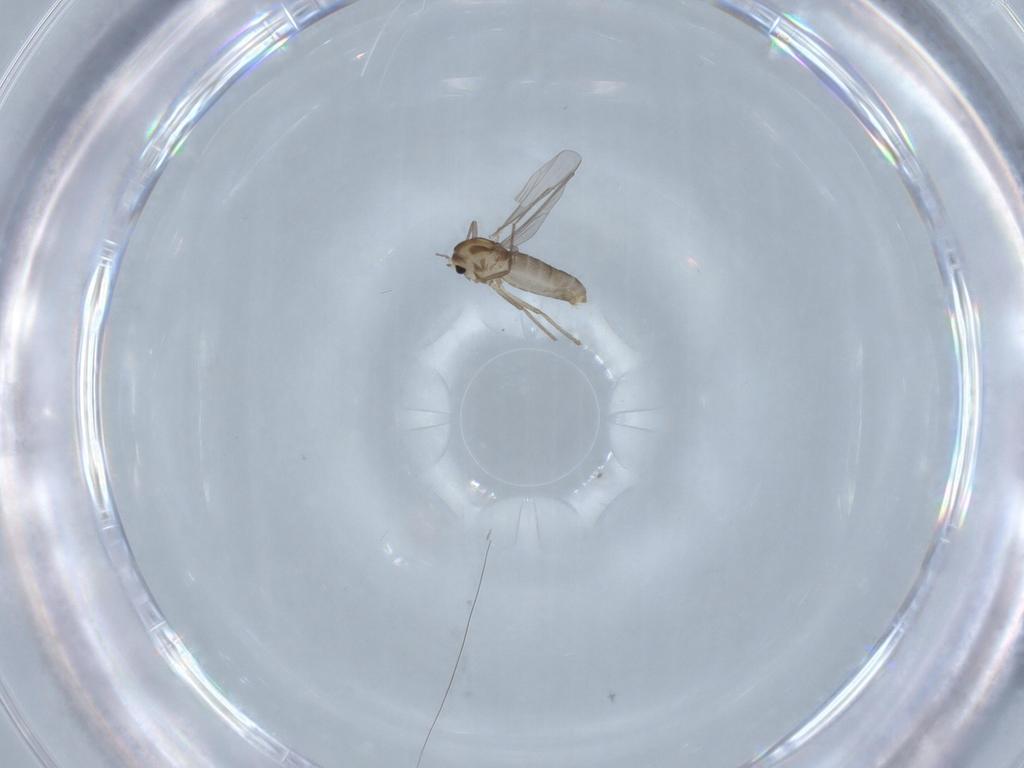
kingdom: Animalia
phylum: Arthropoda
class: Insecta
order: Diptera
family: Chironomidae
